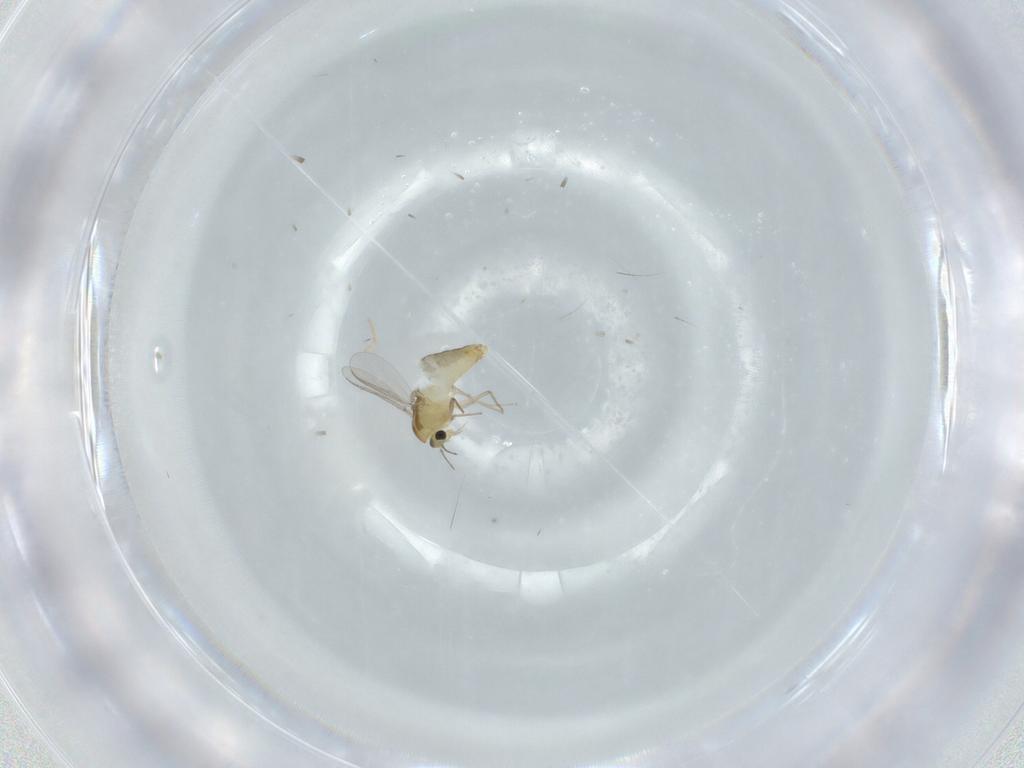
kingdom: Animalia
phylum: Arthropoda
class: Insecta
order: Diptera
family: Chironomidae
